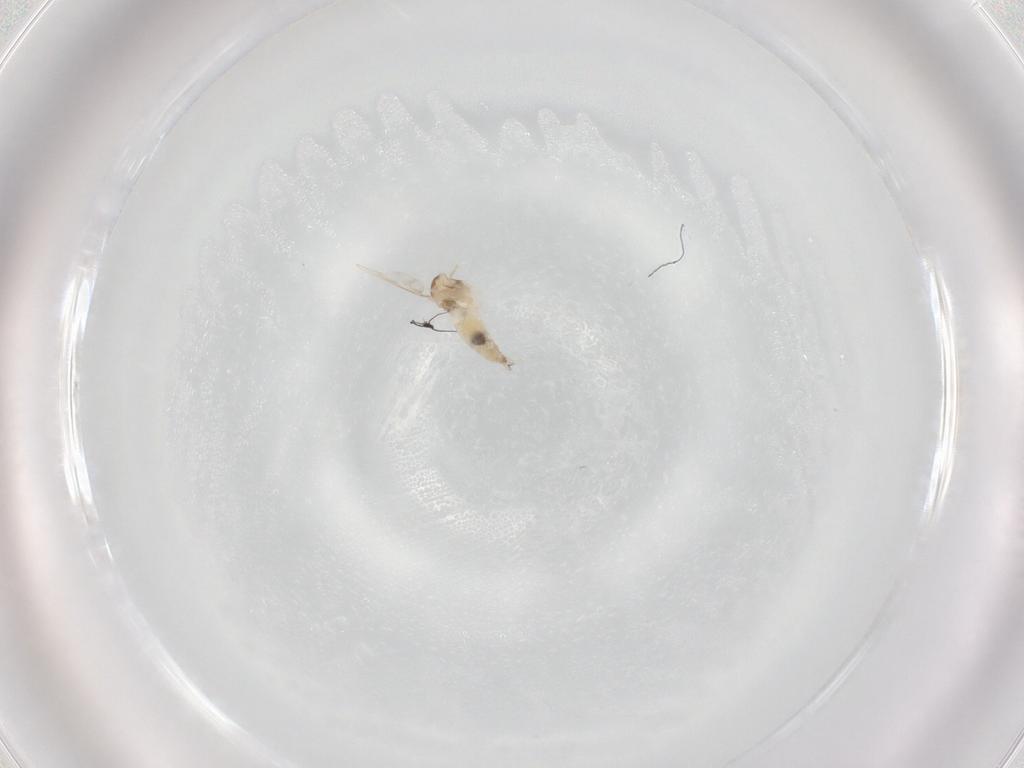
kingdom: Animalia
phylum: Arthropoda
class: Insecta
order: Diptera
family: Cecidomyiidae
